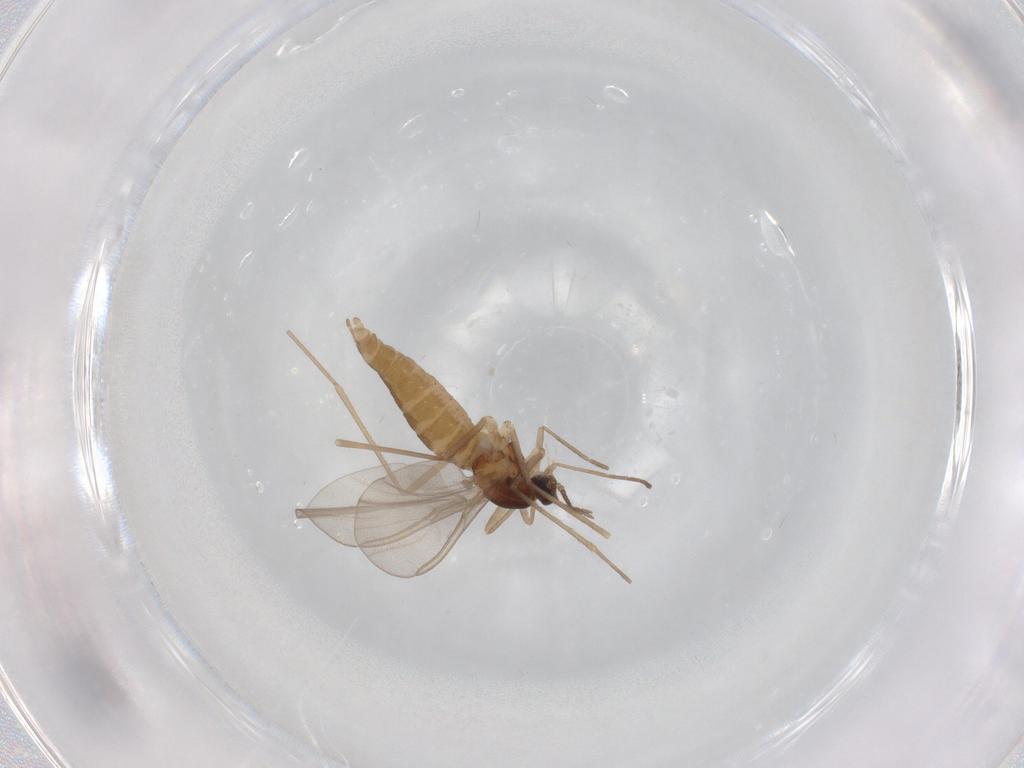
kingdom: Animalia
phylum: Arthropoda
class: Insecta
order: Diptera
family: Cecidomyiidae
